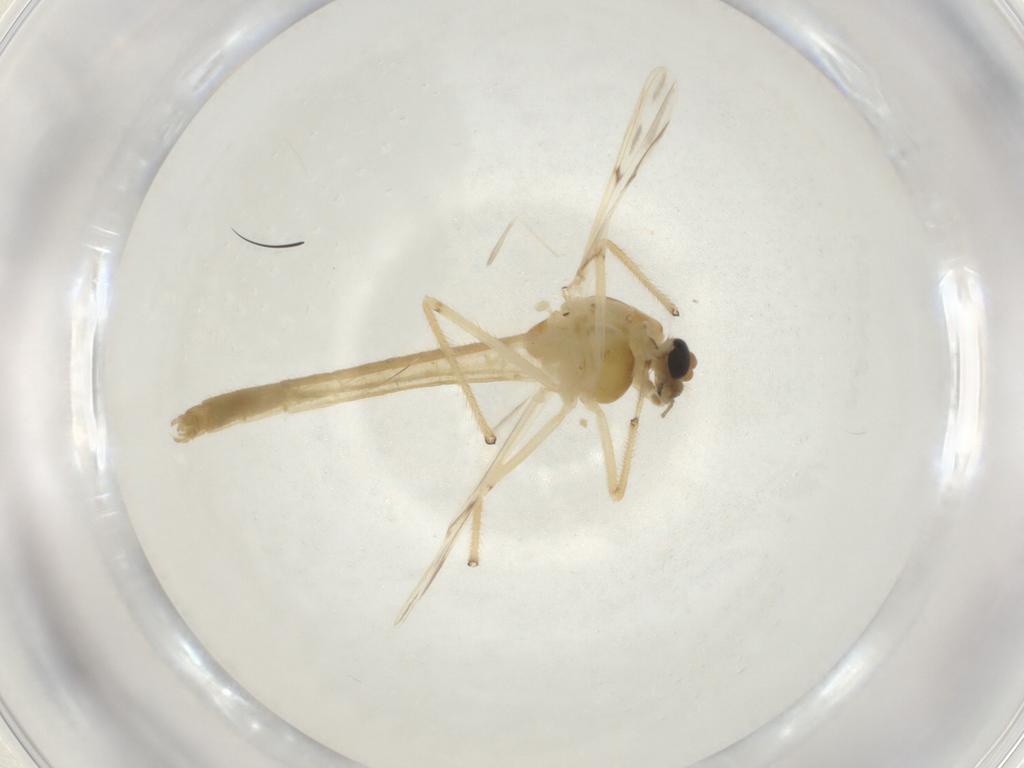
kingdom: Animalia
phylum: Arthropoda
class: Insecta
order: Diptera
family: Chironomidae
